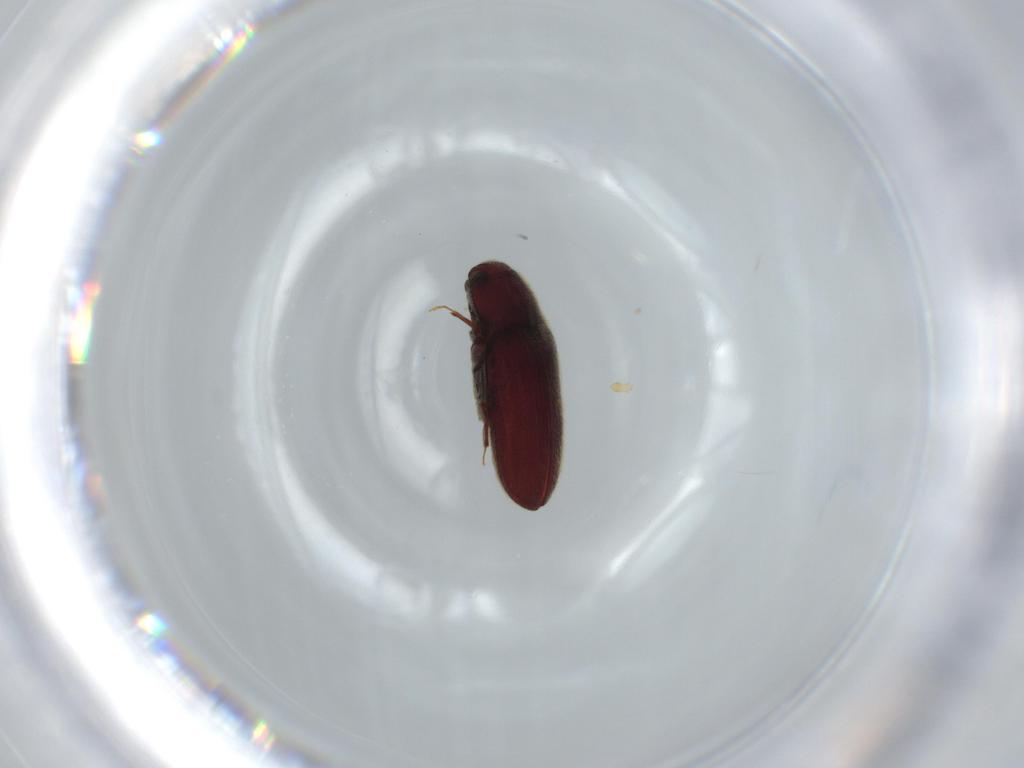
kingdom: Animalia
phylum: Arthropoda
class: Insecta
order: Coleoptera
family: Throscidae
